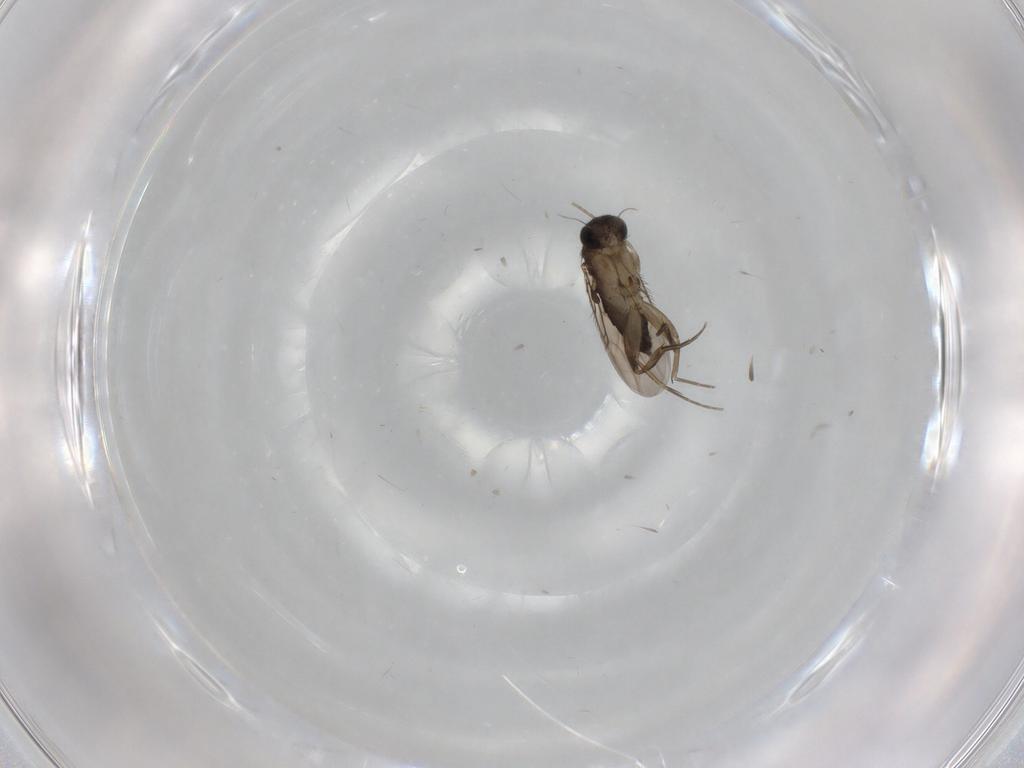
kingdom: Animalia
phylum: Arthropoda
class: Insecta
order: Diptera
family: Phoridae
